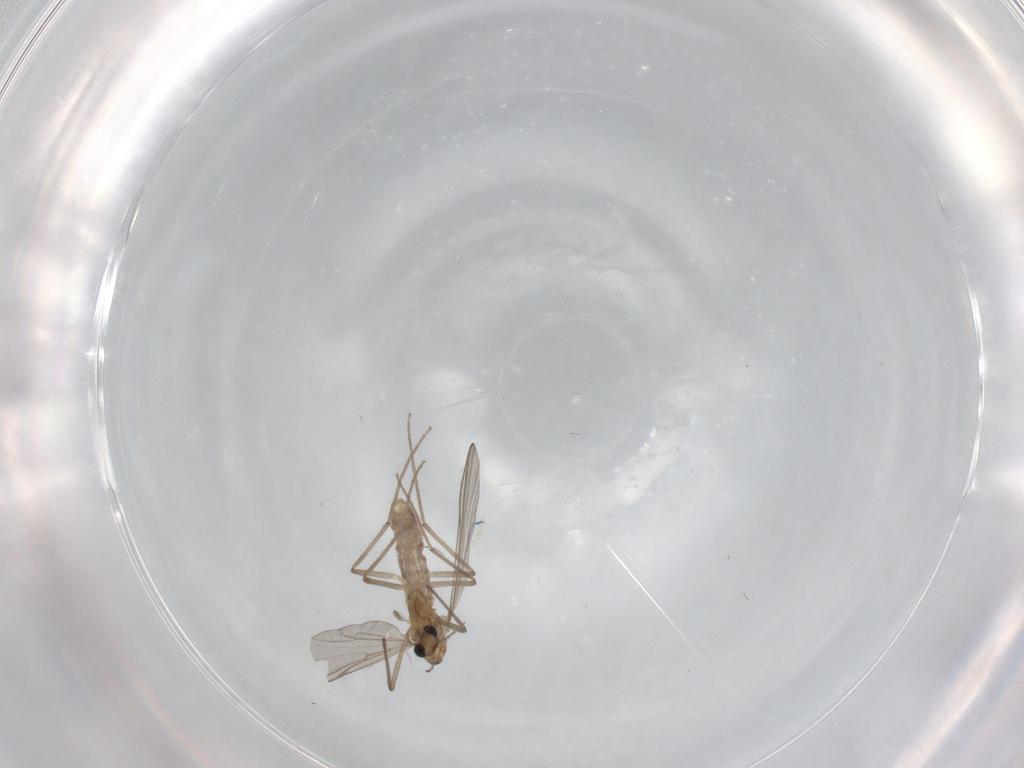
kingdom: Animalia
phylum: Arthropoda
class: Insecta
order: Diptera
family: Chironomidae
